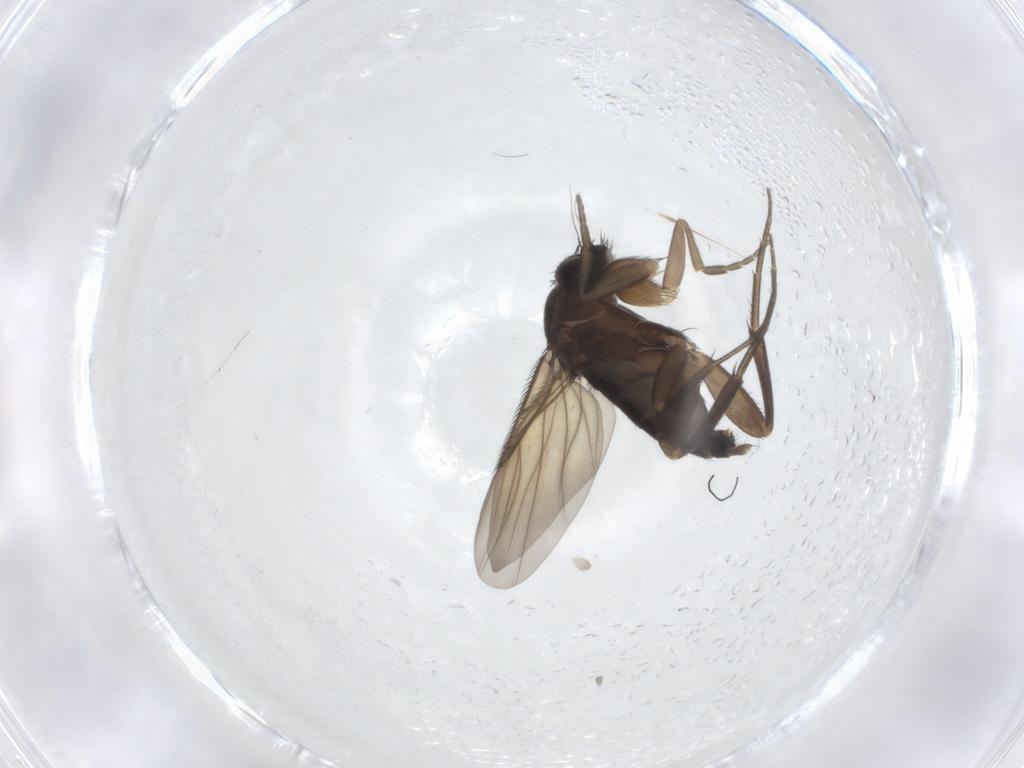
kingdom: Animalia
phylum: Arthropoda
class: Insecta
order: Diptera
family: Phoridae
